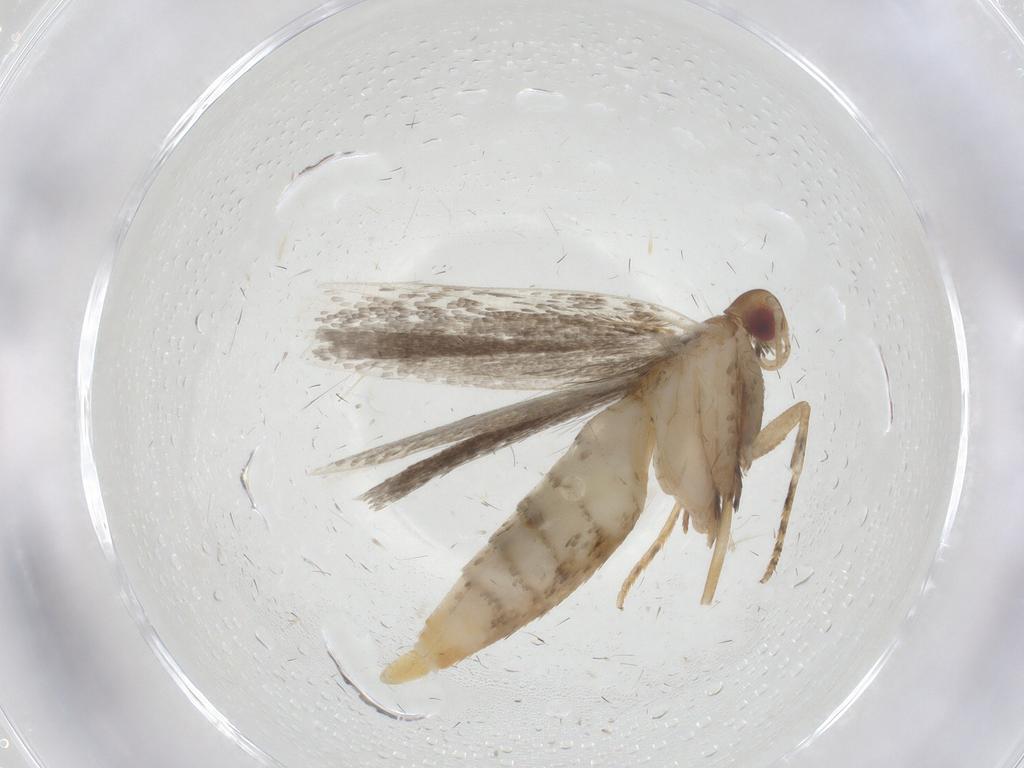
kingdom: Animalia
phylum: Arthropoda
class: Insecta
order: Lepidoptera
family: Gelechiidae
